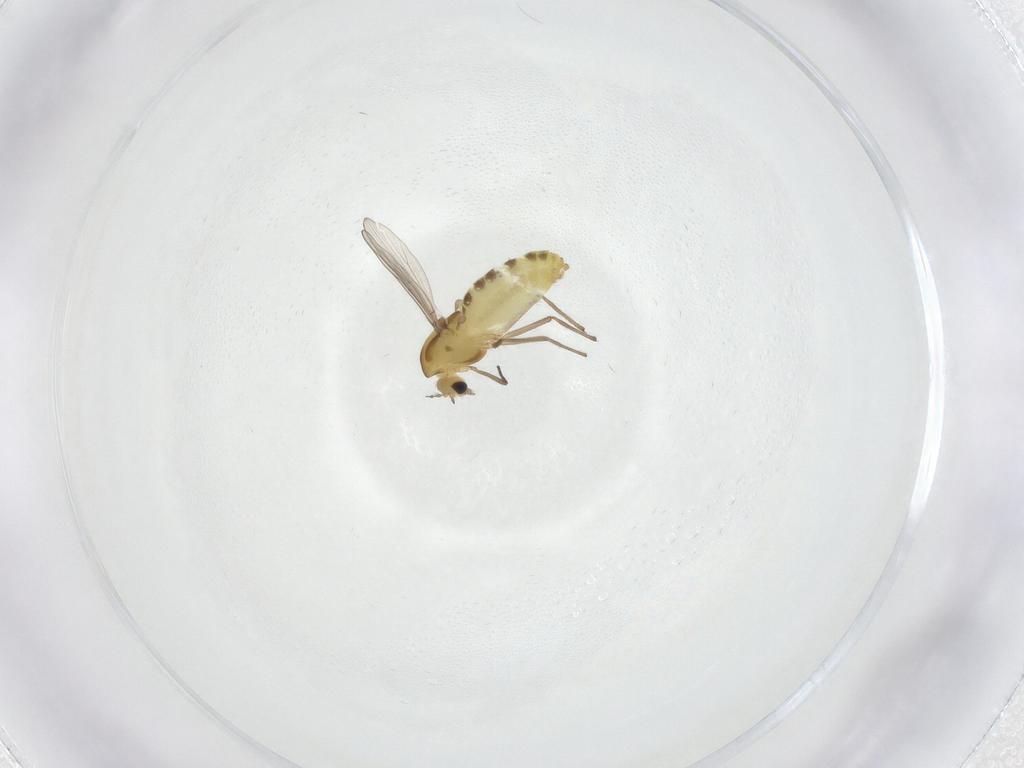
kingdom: Animalia
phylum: Arthropoda
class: Insecta
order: Diptera
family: Chironomidae
